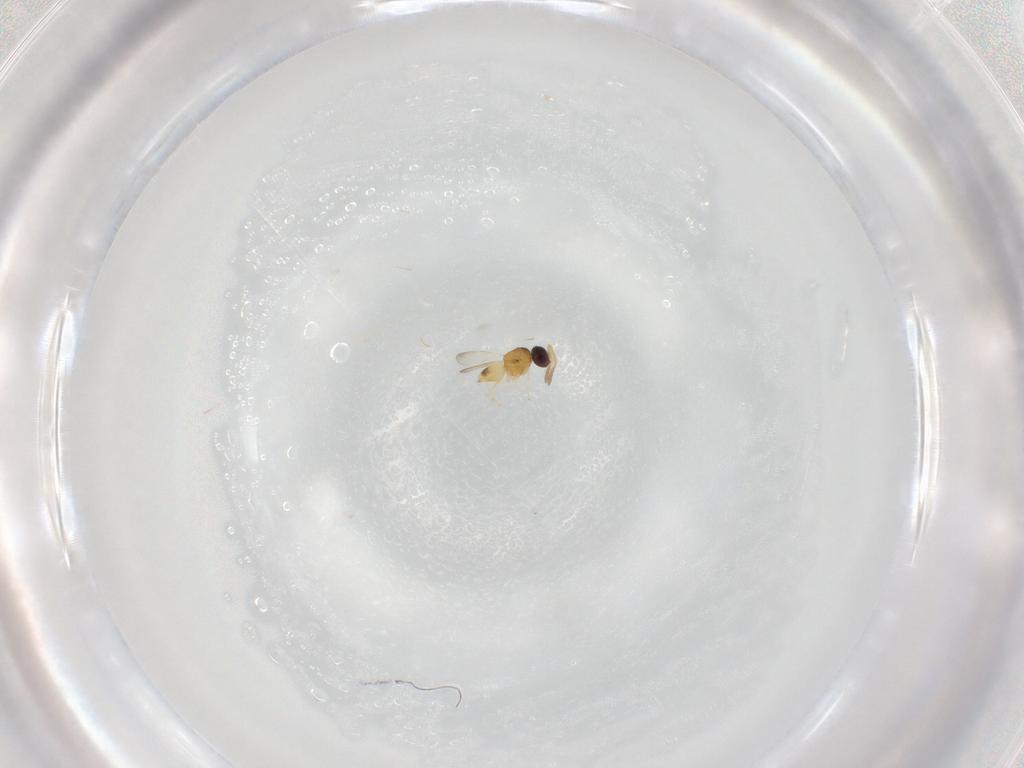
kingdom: Animalia
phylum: Arthropoda
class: Insecta
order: Hymenoptera
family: Ceraphronidae
